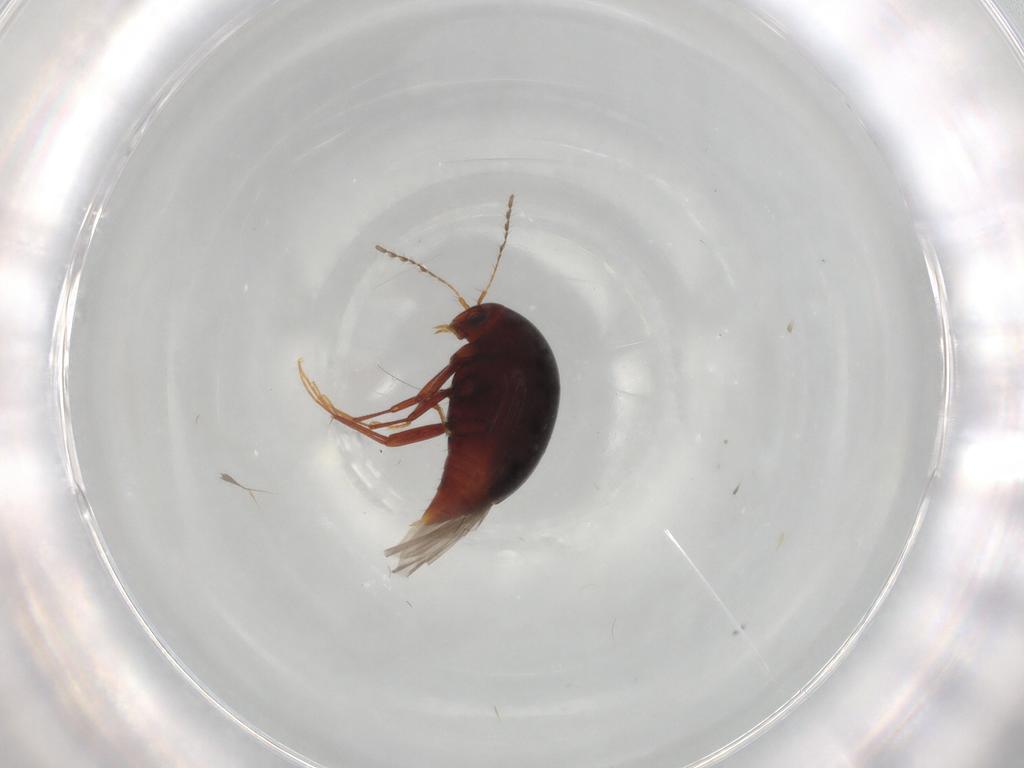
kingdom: Animalia
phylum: Arthropoda
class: Insecta
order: Coleoptera
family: Staphylinidae
